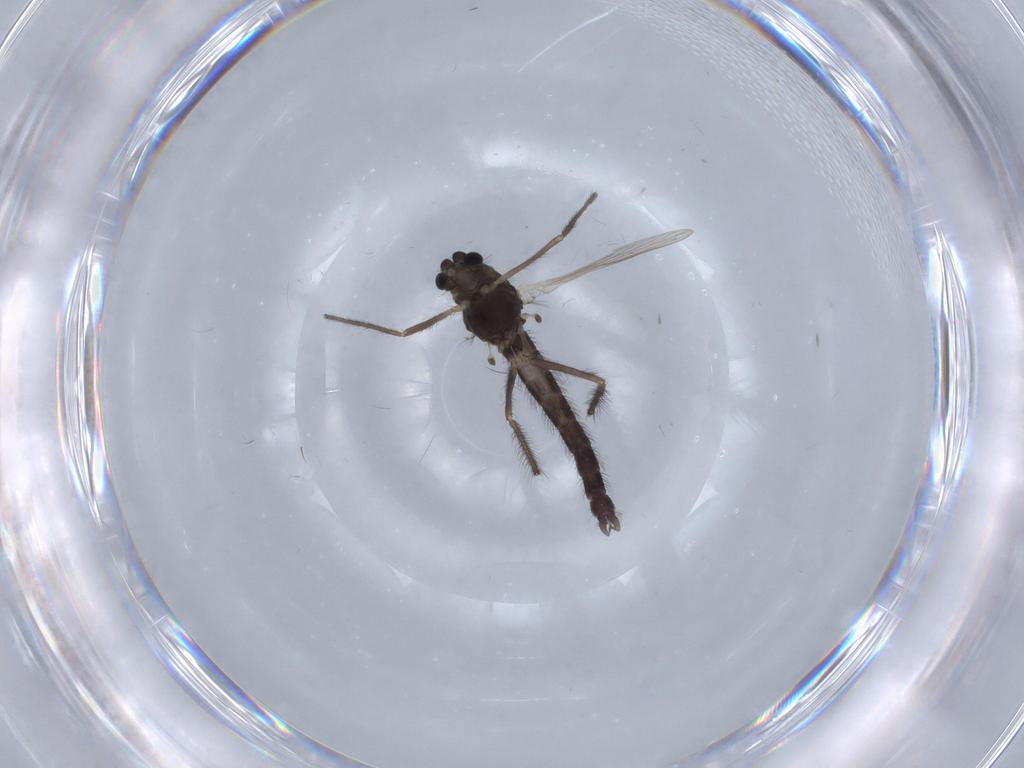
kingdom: Animalia
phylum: Arthropoda
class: Insecta
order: Diptera
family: Chironomidae
